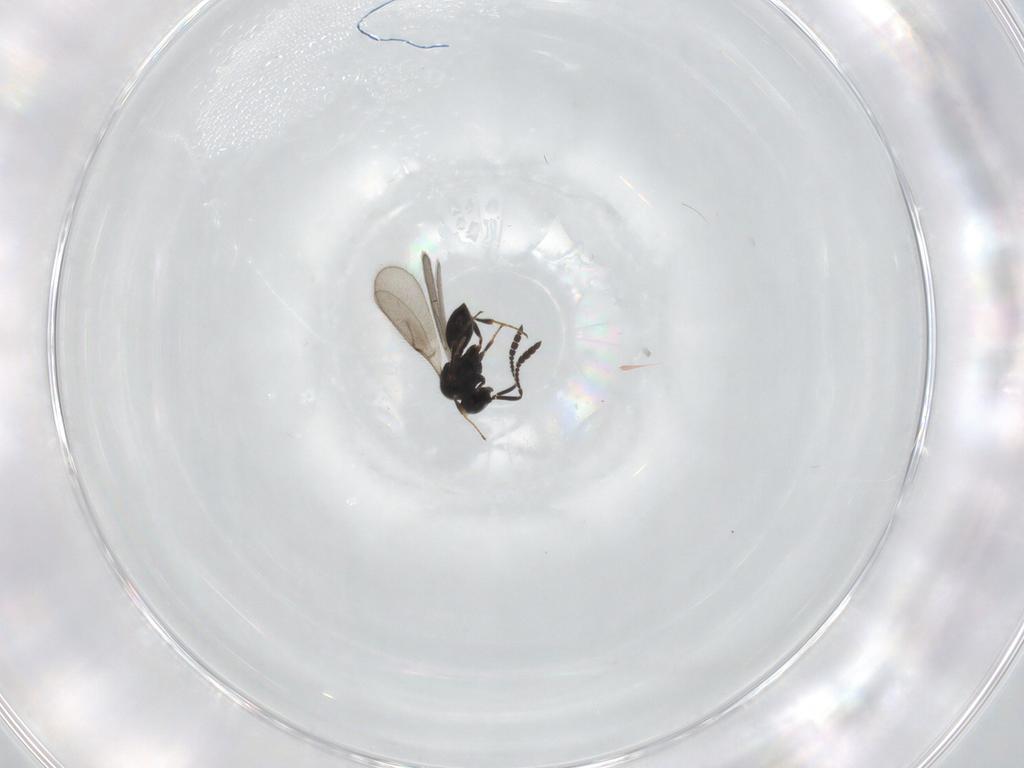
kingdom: Animalia
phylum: Arthropoda
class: Insecta
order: Hymenoptera
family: Scelionidae
